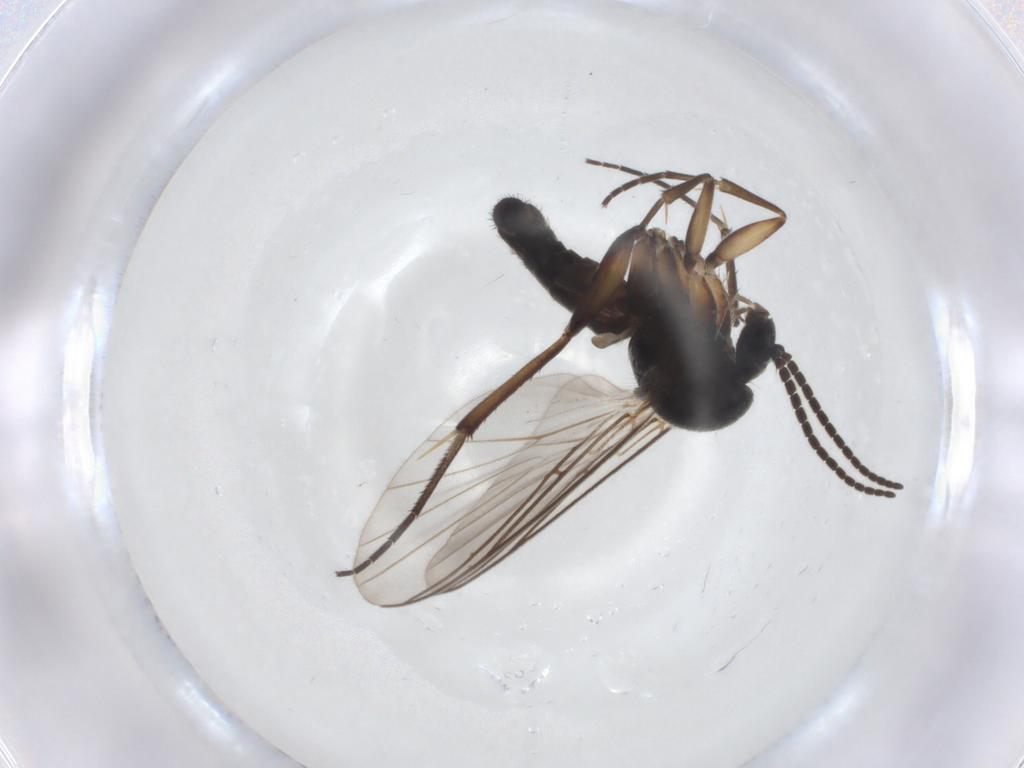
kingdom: Animalia
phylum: Arthropoda
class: Insecta
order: Diptera
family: Mycetophilidae
